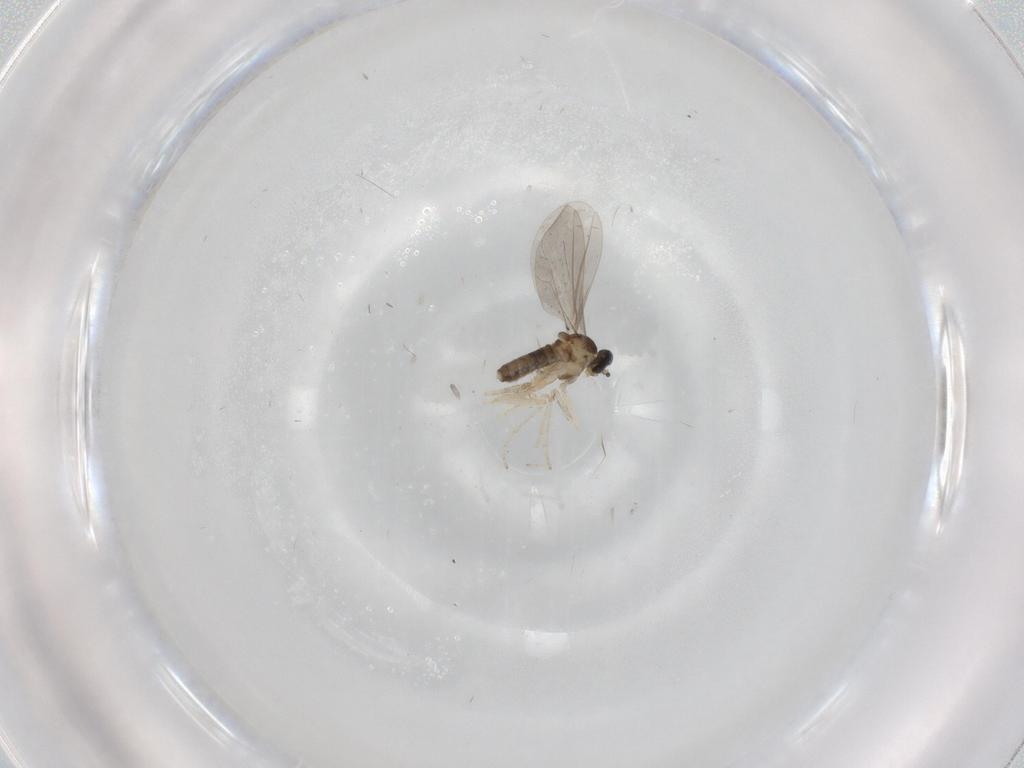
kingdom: Animalia
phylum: Arthropoda
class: Insecta
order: Diptera
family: Cecidomyiidae
